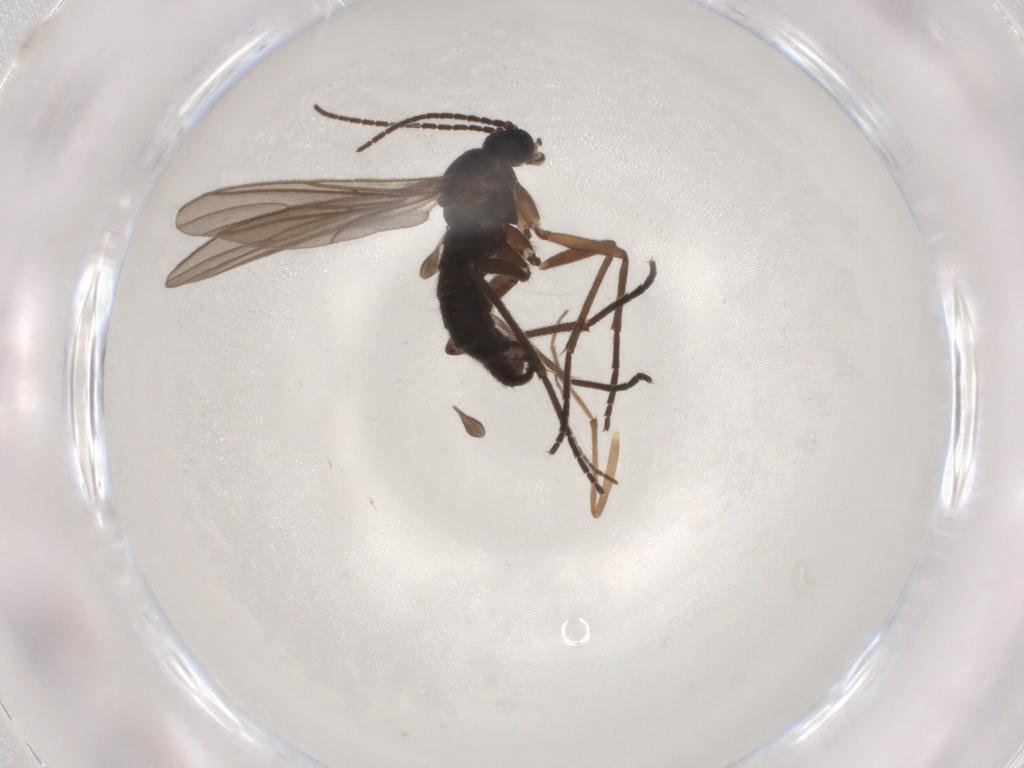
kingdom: Animalia
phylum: Arthropoda
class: Insecta
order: Diptera
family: Sciaridae
